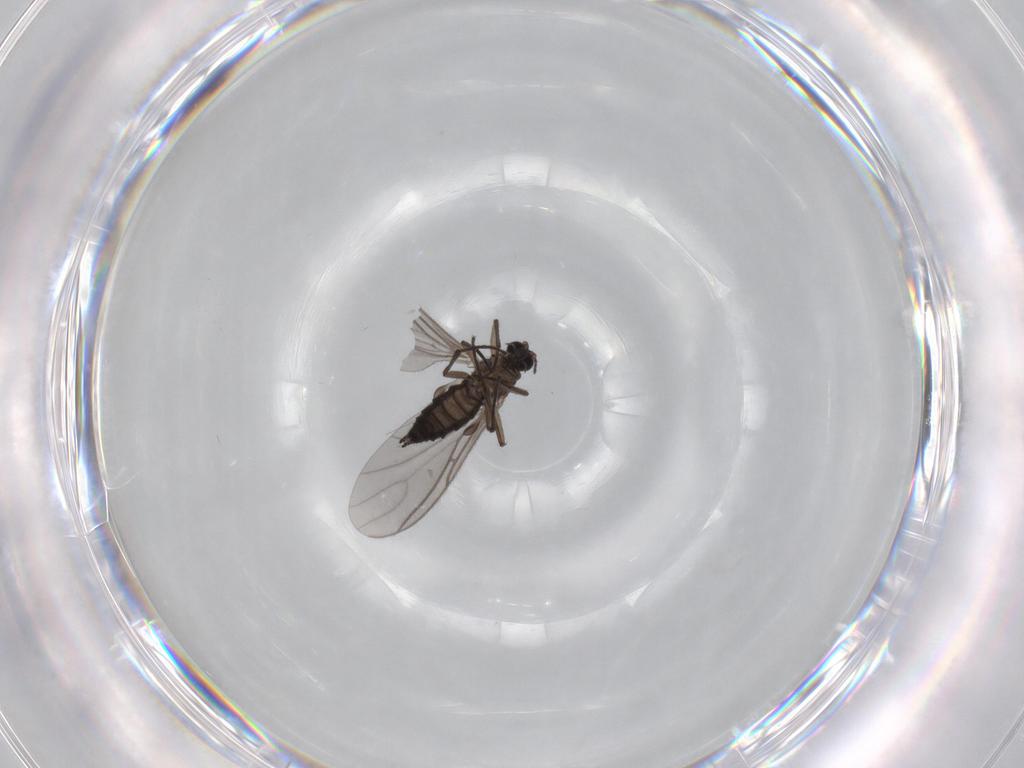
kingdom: Animalia
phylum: Arthropoda
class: Insecta
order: Diptera
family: Sciaridae
